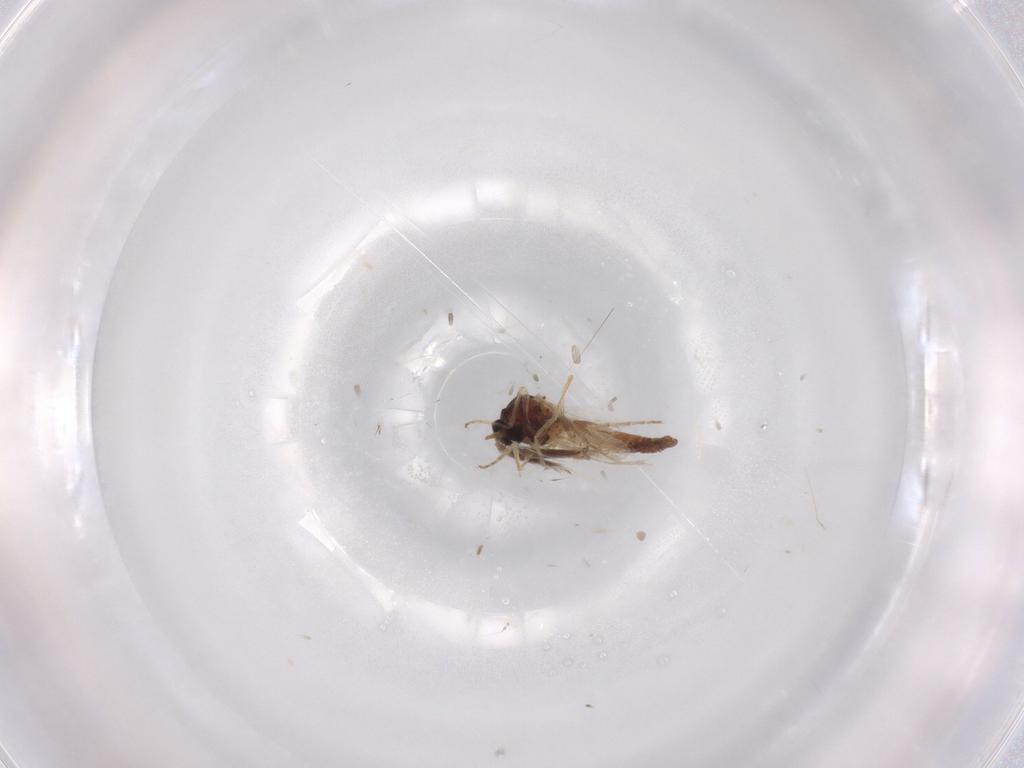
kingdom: Animalia
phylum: Arthropoda
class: Insecta
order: Diptera
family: Ceratopogonidae
